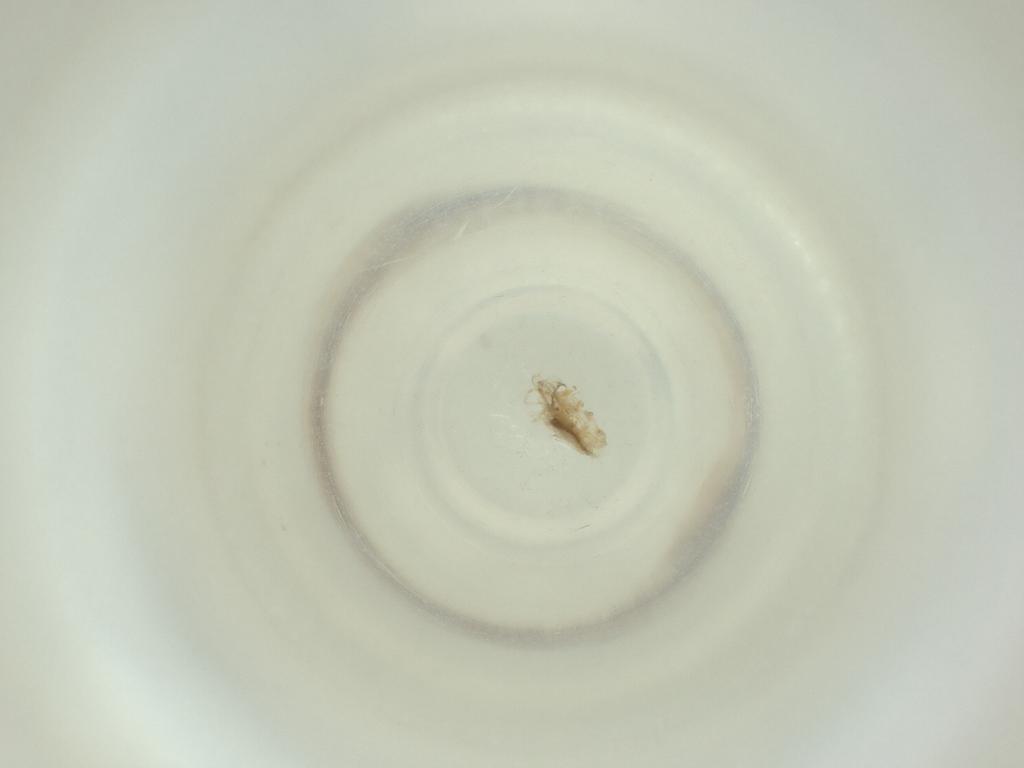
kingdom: Animalia
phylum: Arthropoda
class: Insecta
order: Diptera
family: Cecidomyiidae
